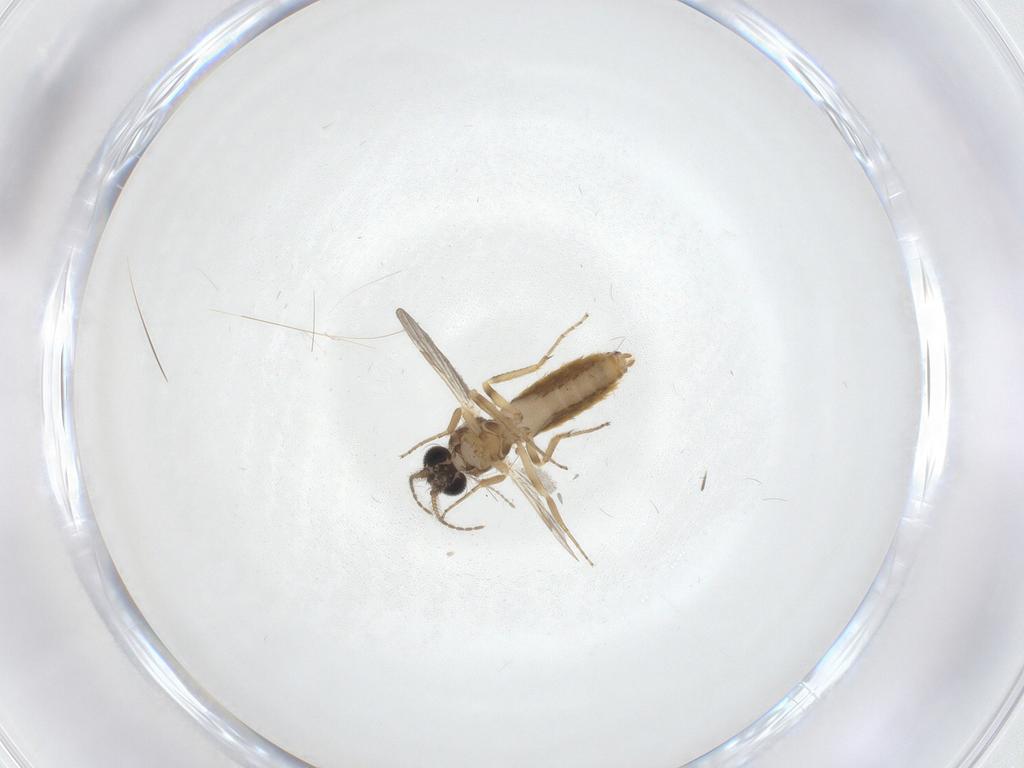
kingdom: Animalia
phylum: Arthropoda
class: Insecta
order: Diptera
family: Ceratopogonidae
